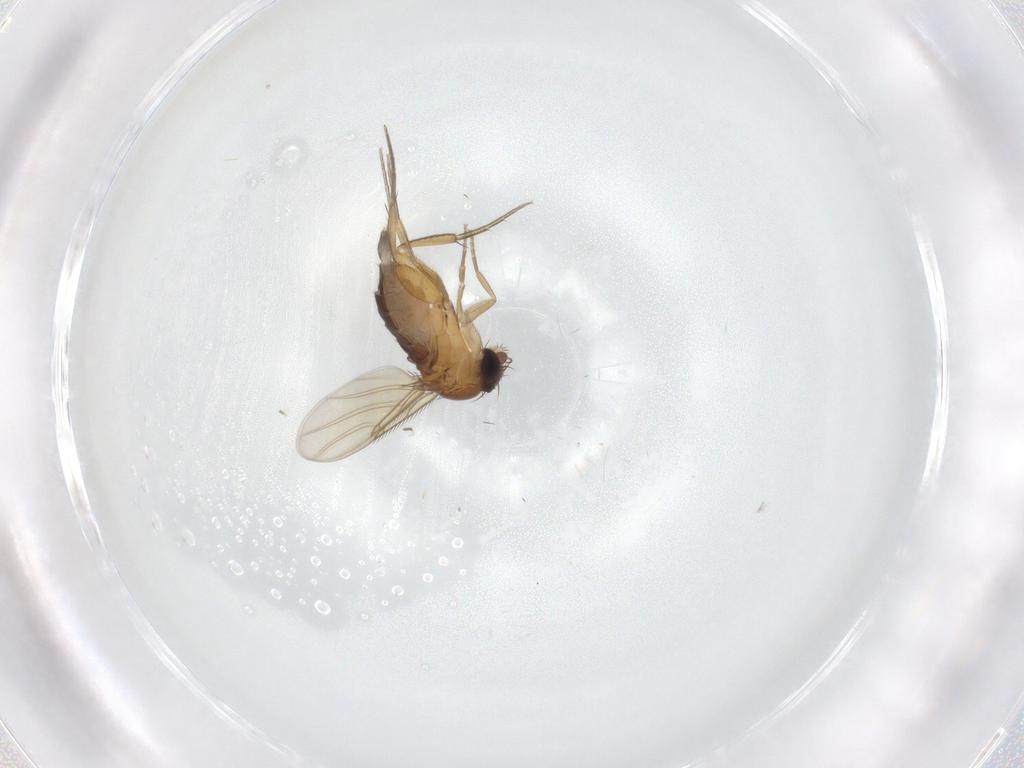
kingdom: Animalia
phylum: Arthropoda
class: Insecta
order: Diptera
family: Phoridae
